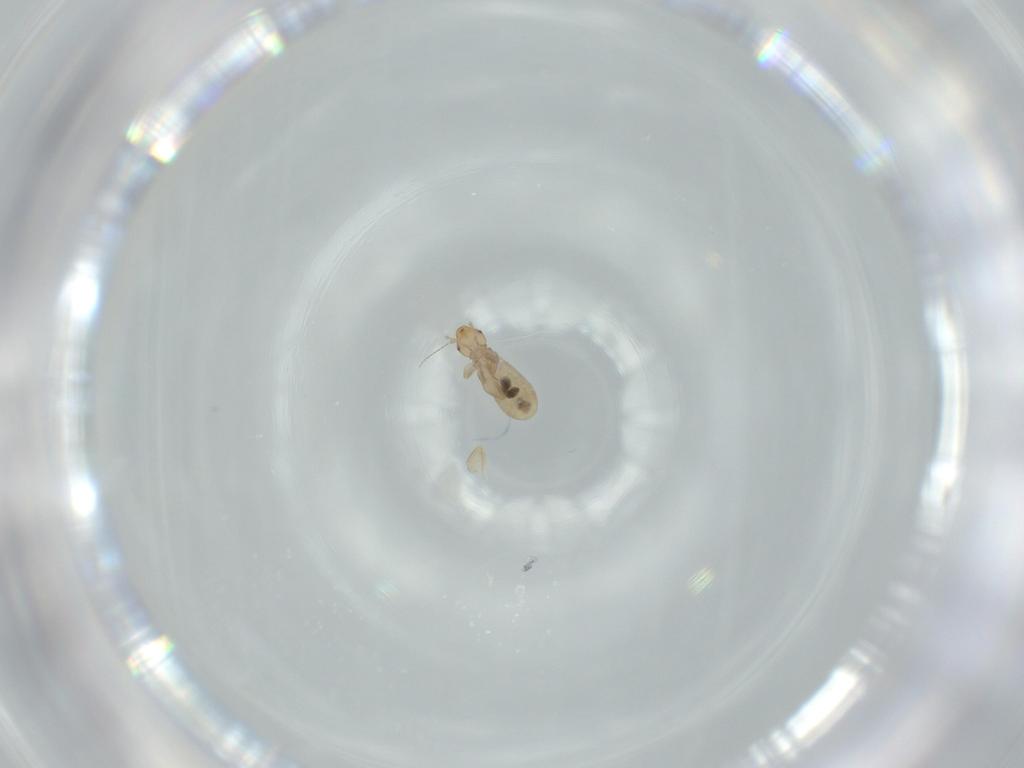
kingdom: Animalia
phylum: Arthropoda
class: Insecta
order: Psocodea
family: Liposcelididae
